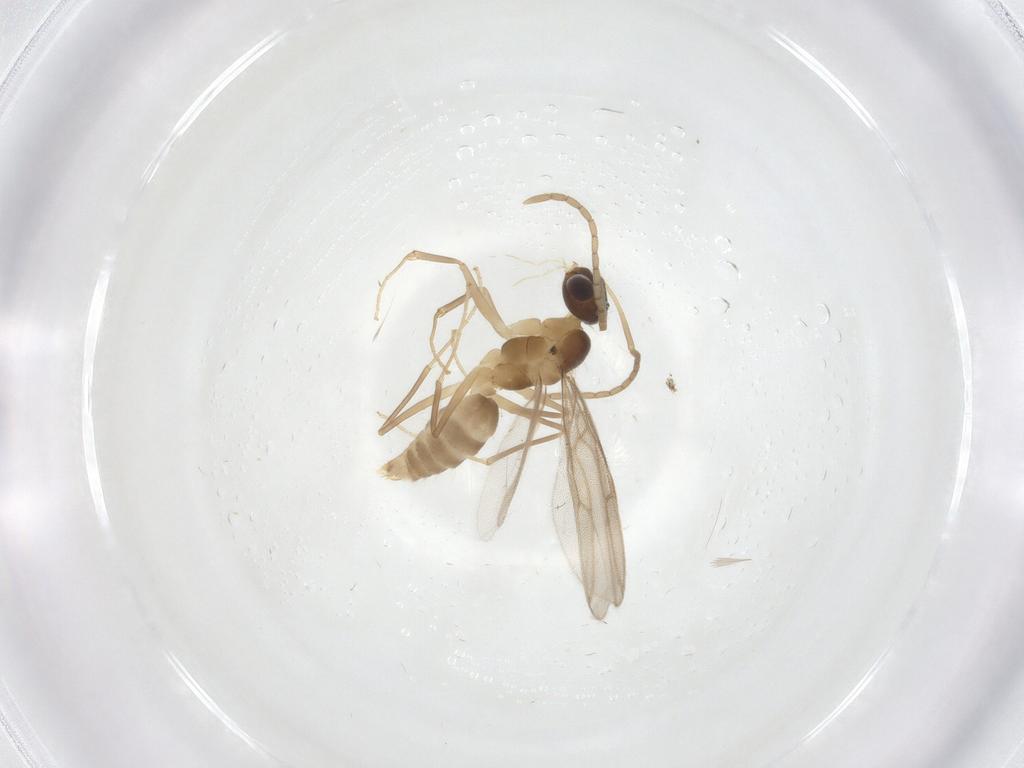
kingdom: Animalia
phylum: Arthropoda
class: Insecta
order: Hymenoptera
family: Formicidae
